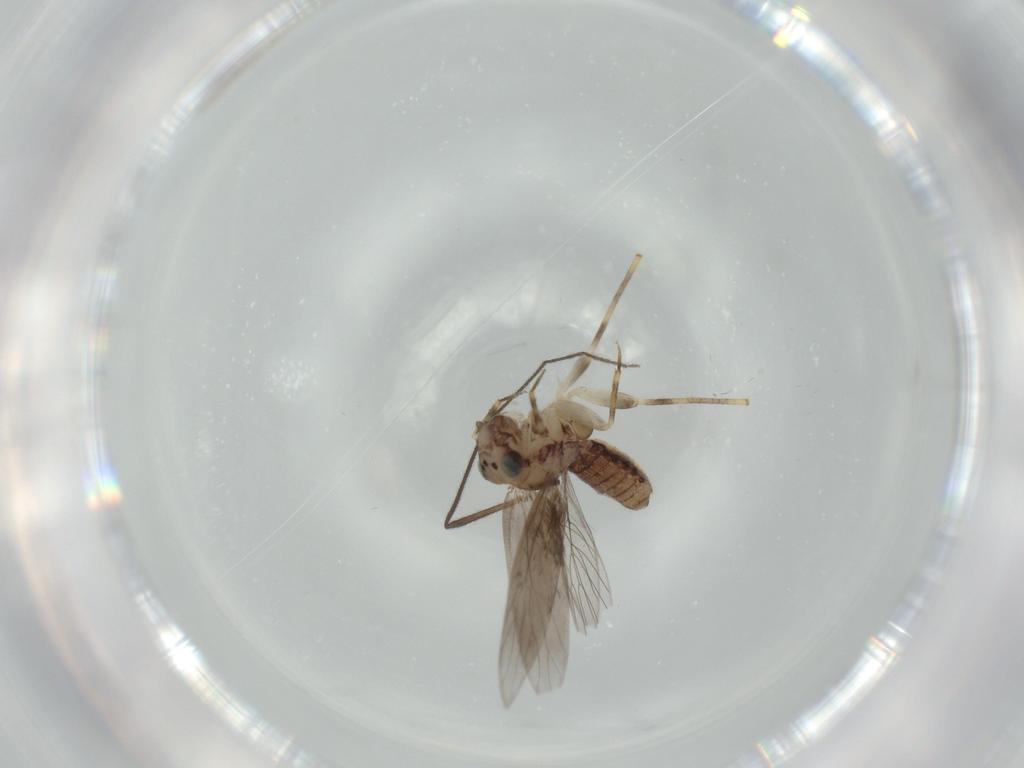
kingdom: Animalia
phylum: Arthropoda
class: Insecta
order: Psocodea
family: Lepidopsocidae
